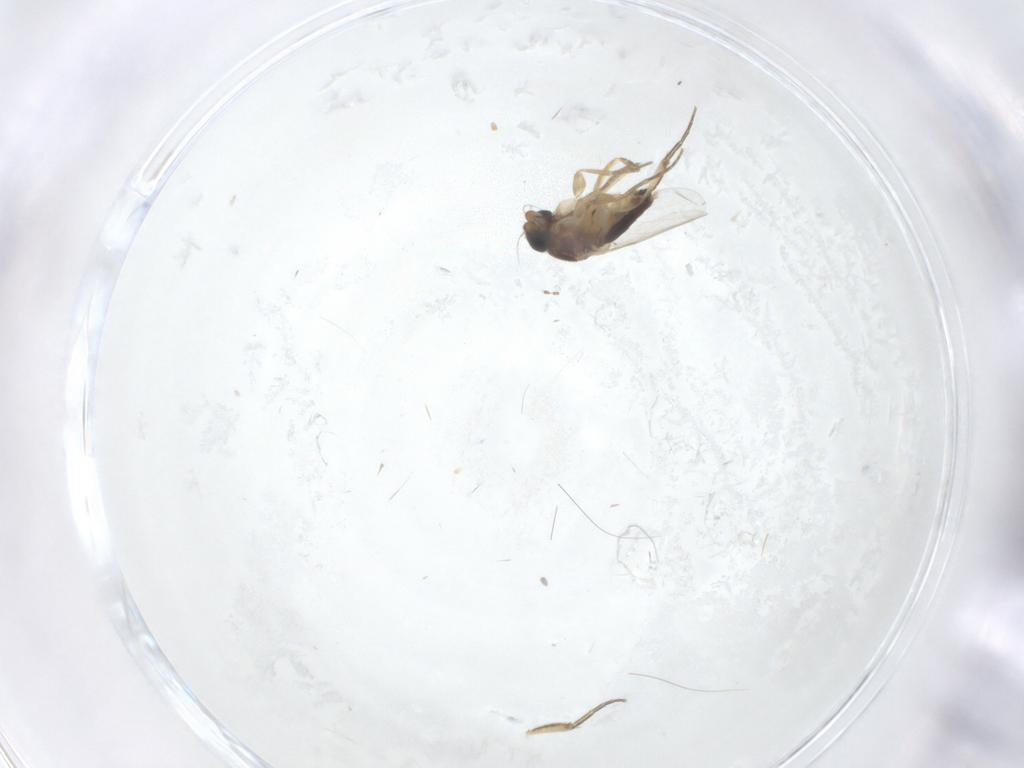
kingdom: Animalia
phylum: Arthropoda
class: Insecta
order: Diptera
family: Phoridae
